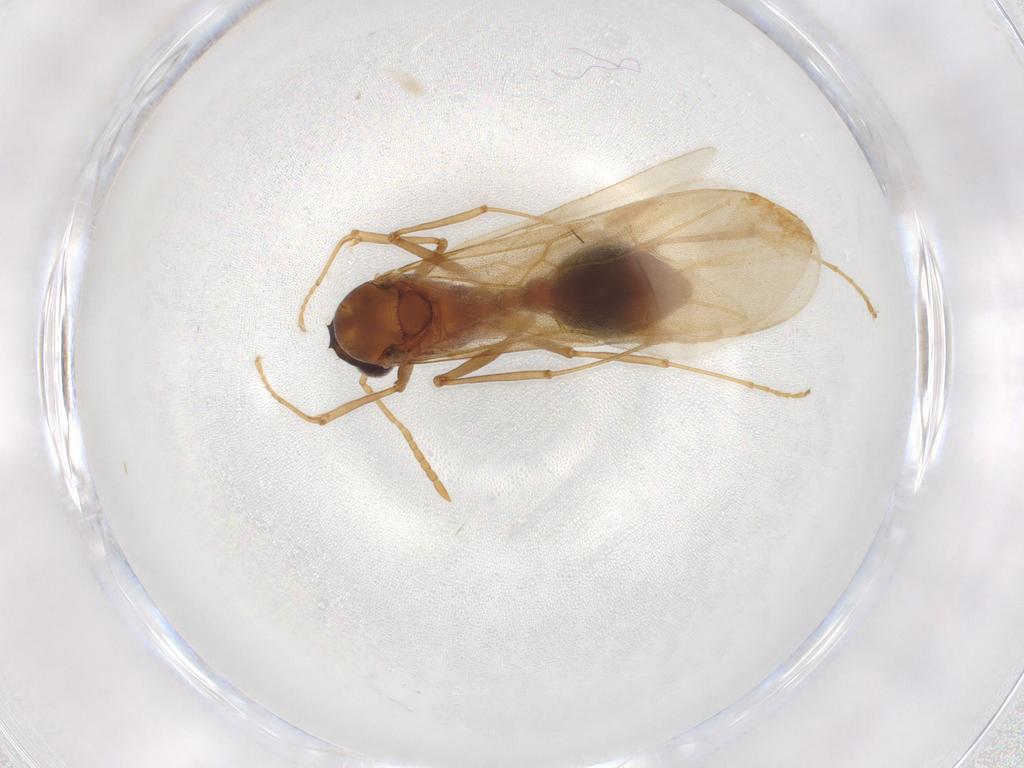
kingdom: Animalia
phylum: Arthropoda
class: Insecta
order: Hymenoptera
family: Formicidae
